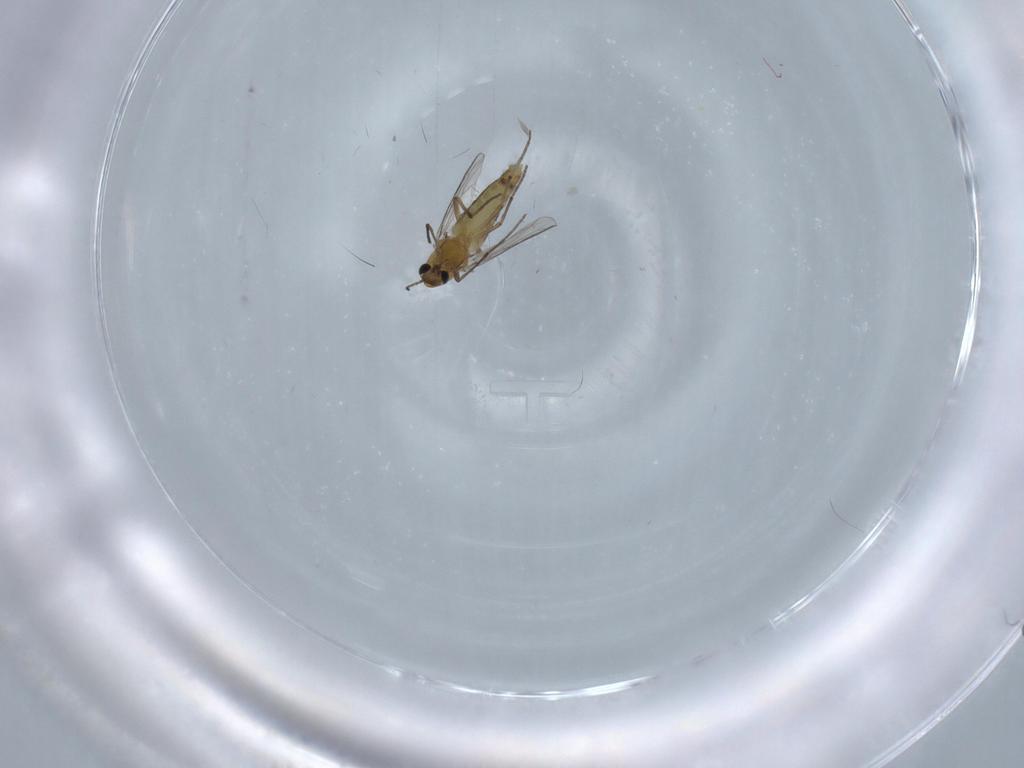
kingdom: Animalia
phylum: Arthropoda
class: Insecta
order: Diptera
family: Chironomidae
